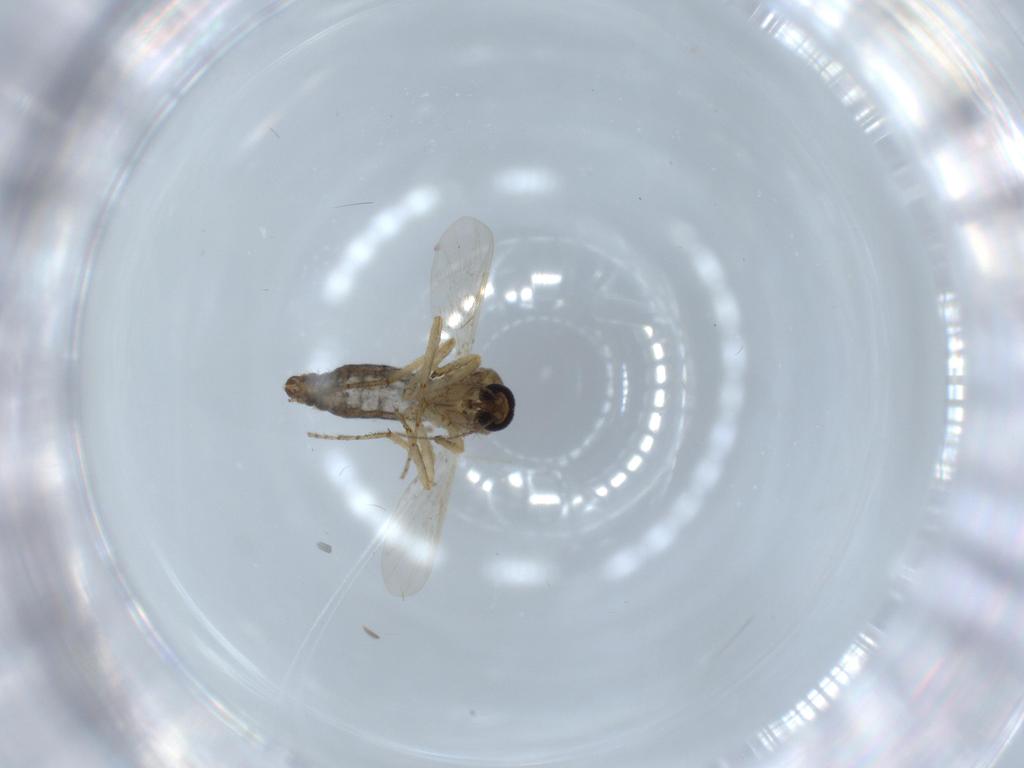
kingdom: Animalia
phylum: Arthropoda
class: Insecta
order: Diptera
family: Ceratopogonidae
